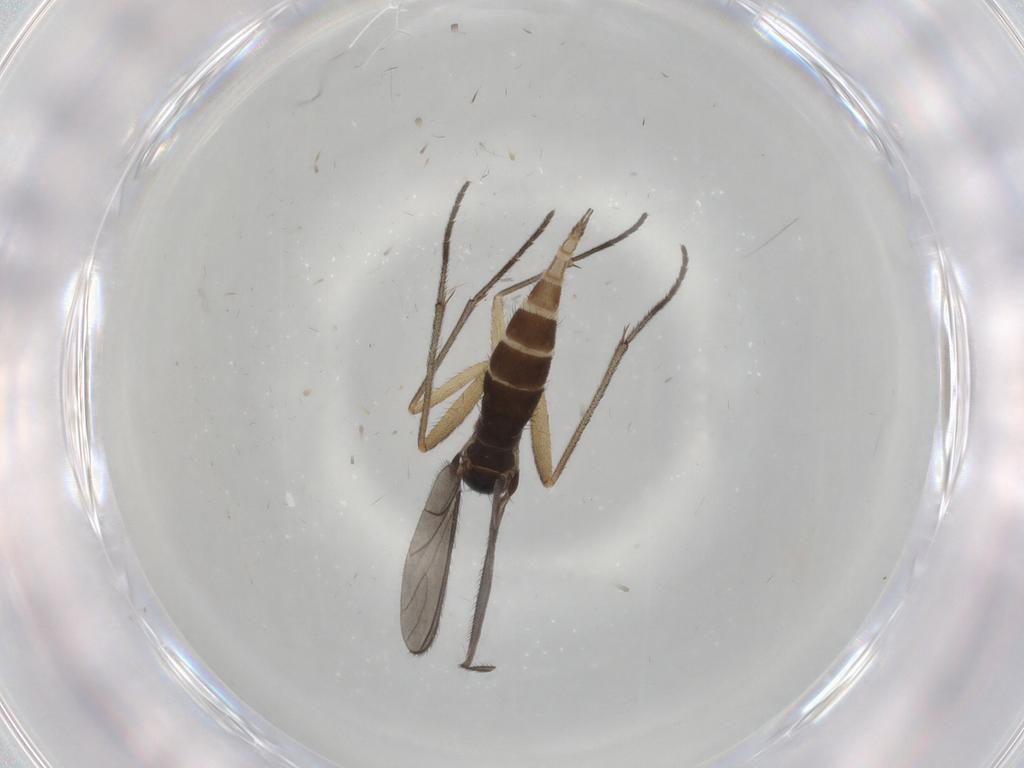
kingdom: Animalia
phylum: Arthropoda
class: Insecta
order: Diptera
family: Sciaridae
